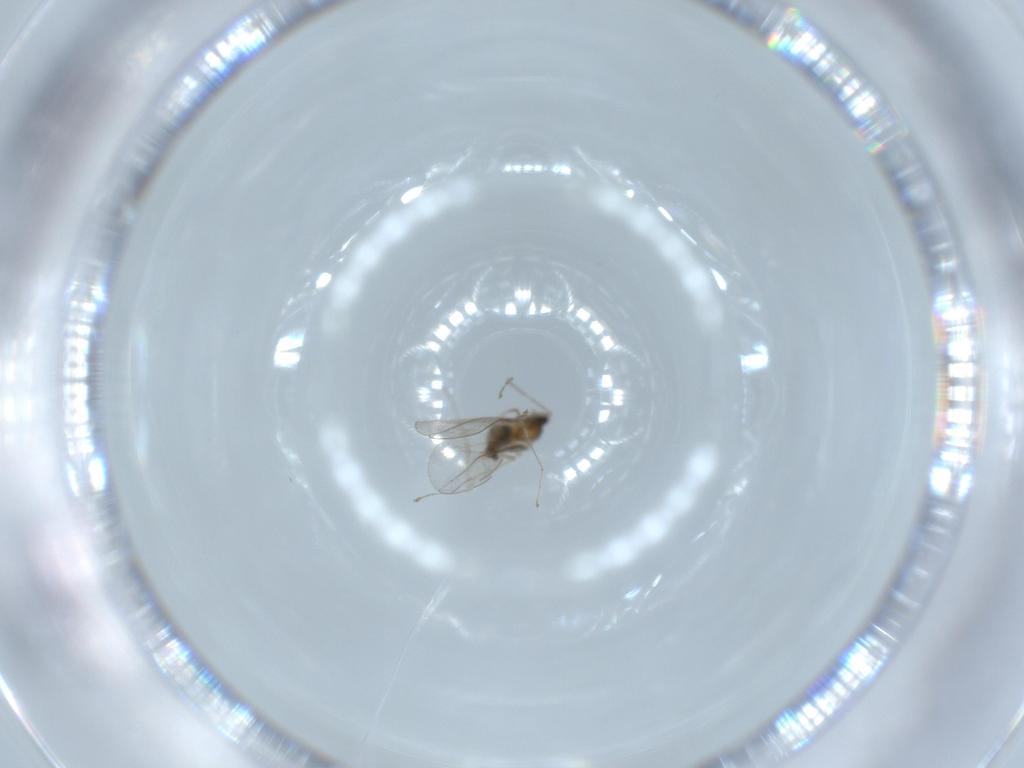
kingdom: Animalia
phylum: Arthropoda
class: Insecta
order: Diptera
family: Cecidomyiidae
